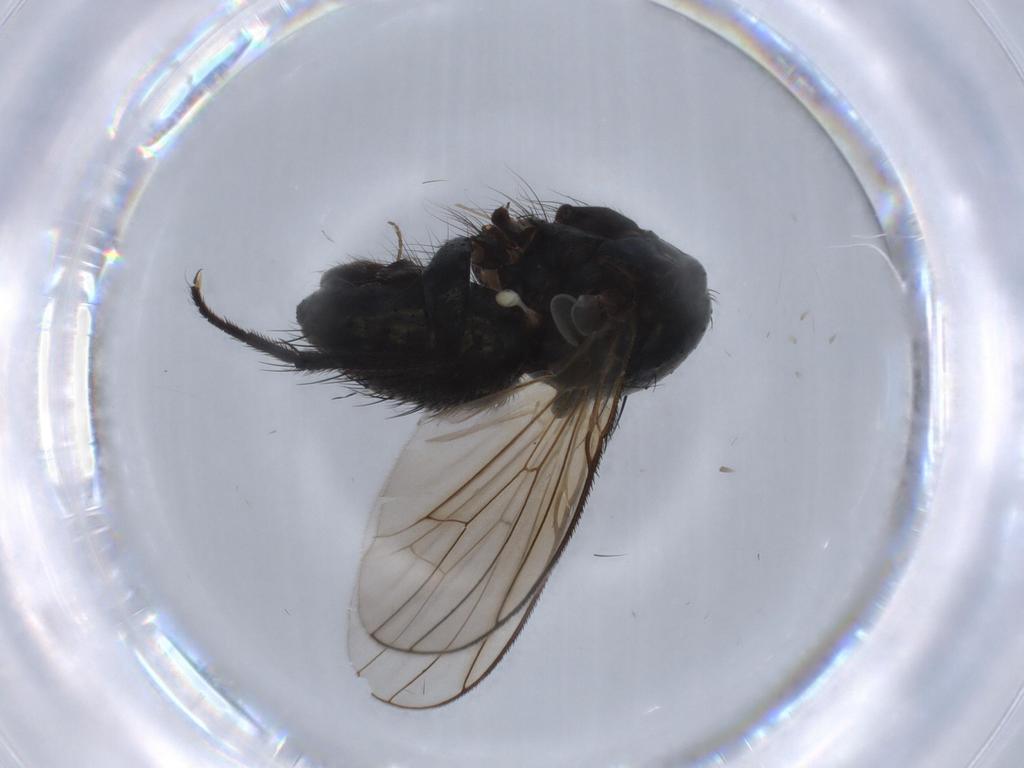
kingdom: Animalia
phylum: Arthropoda
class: Insecta
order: Diptera
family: Muscidae
